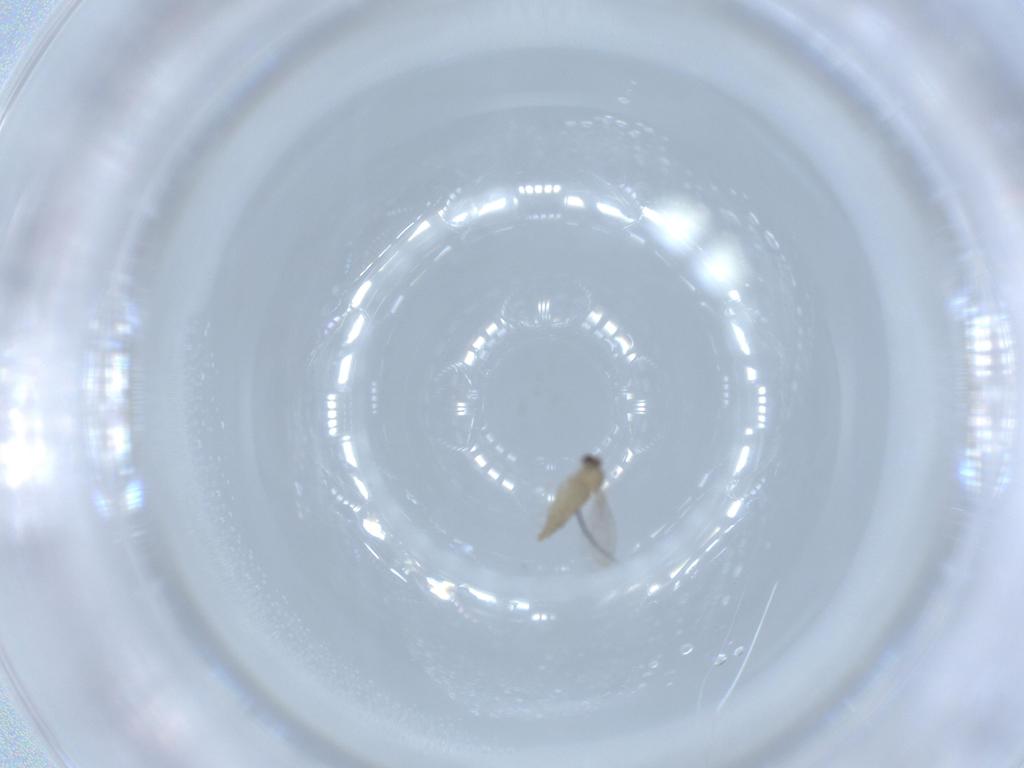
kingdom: Animalia
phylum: Arthropoda
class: Insecta
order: Diptera
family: Cecidomyiidae
